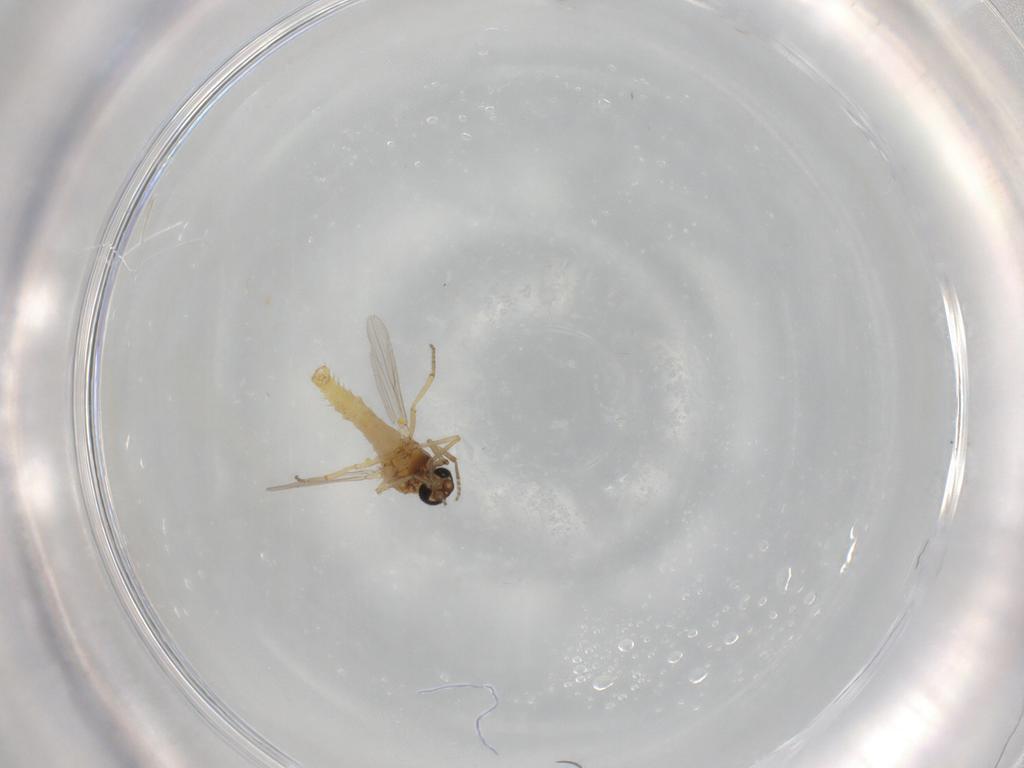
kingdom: Animalia
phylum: Arthropoda
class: Insecta
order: Diptera
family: Ceratopogonidae
